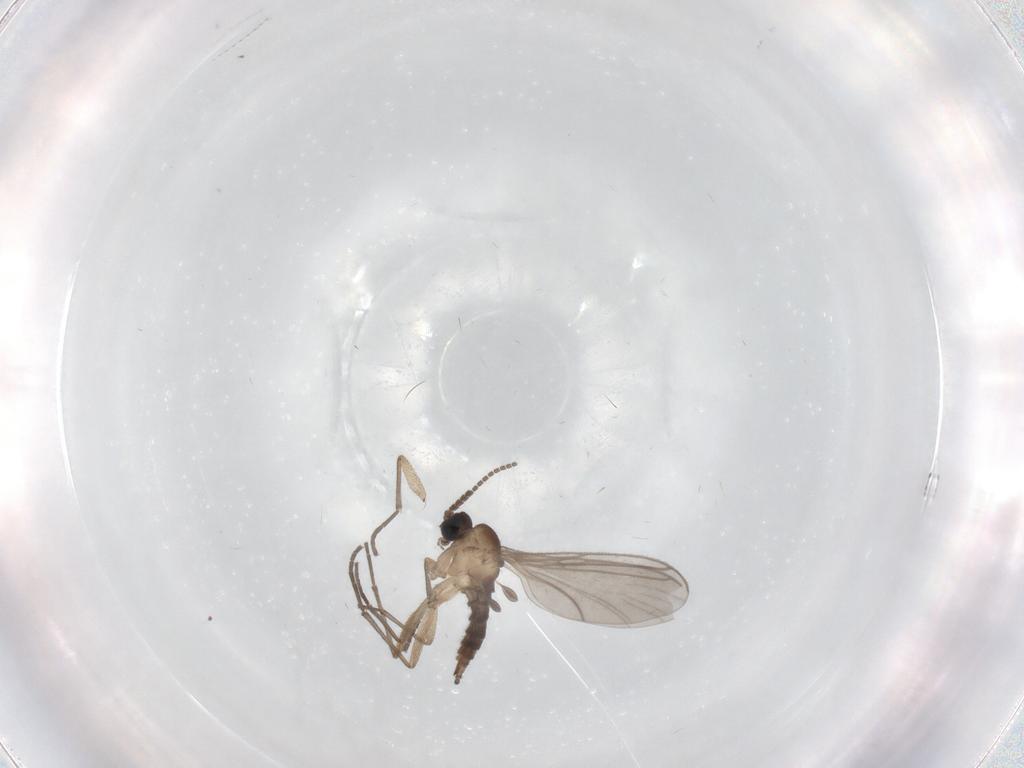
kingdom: Animalia
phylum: Arthropoda
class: Insecta
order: Diptera
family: Sciaridae
